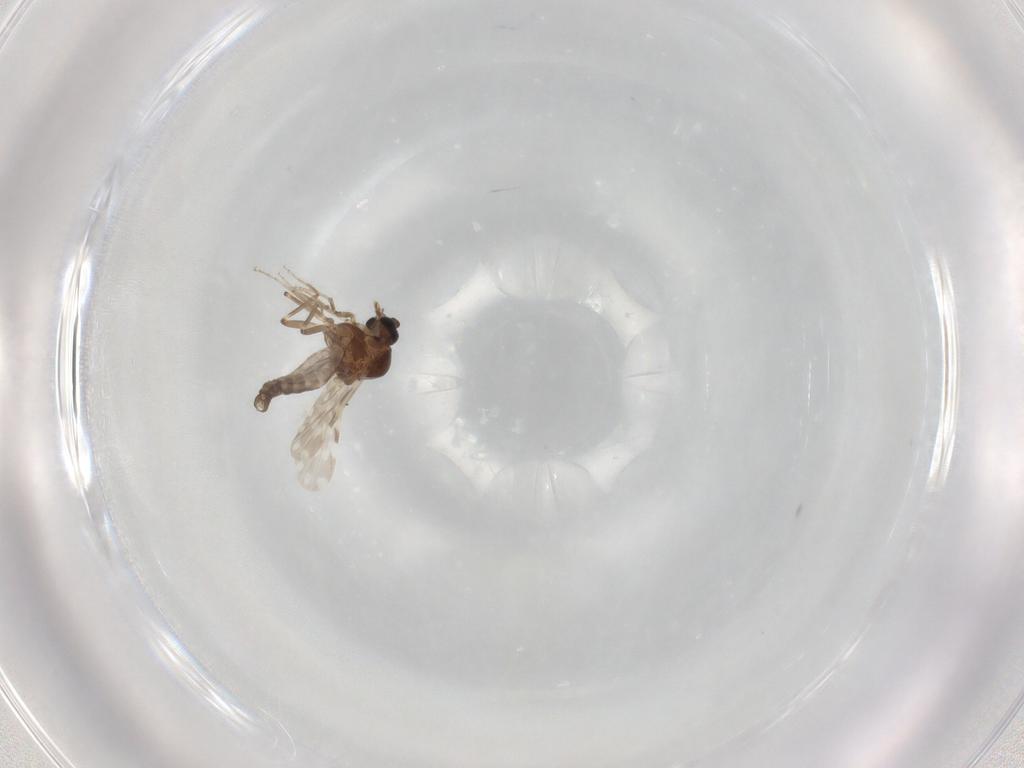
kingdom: Animalia
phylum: Arthropoda
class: Insecta
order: Diptera
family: Ceratopogonidae
